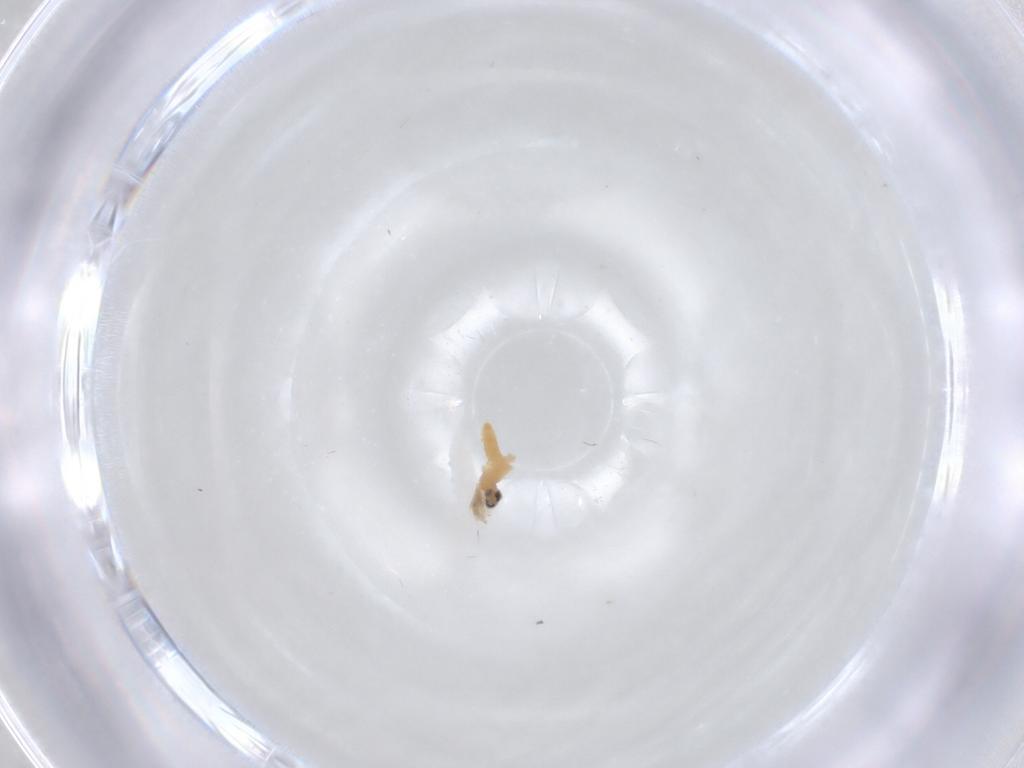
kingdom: Animalia
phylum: Arthropoda
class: Insecta
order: Diptera
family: Cecidomyiidae
